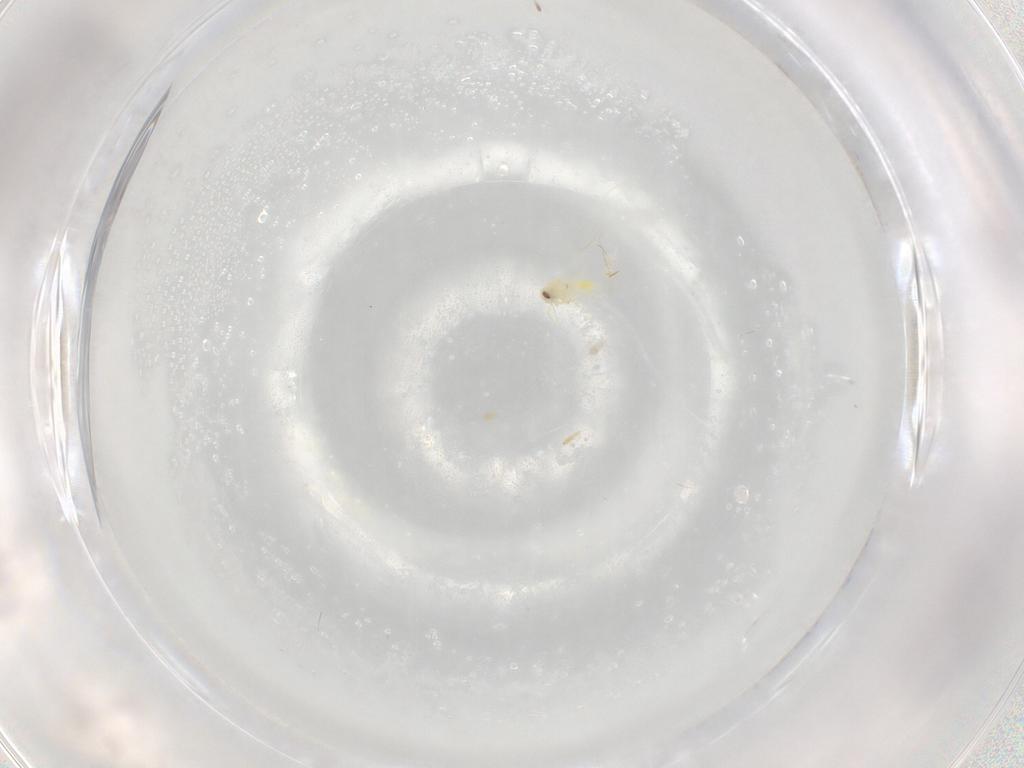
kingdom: Animalia
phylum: Arthropoda
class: Insecta
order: Hemiptera
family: Aleyrodidae
